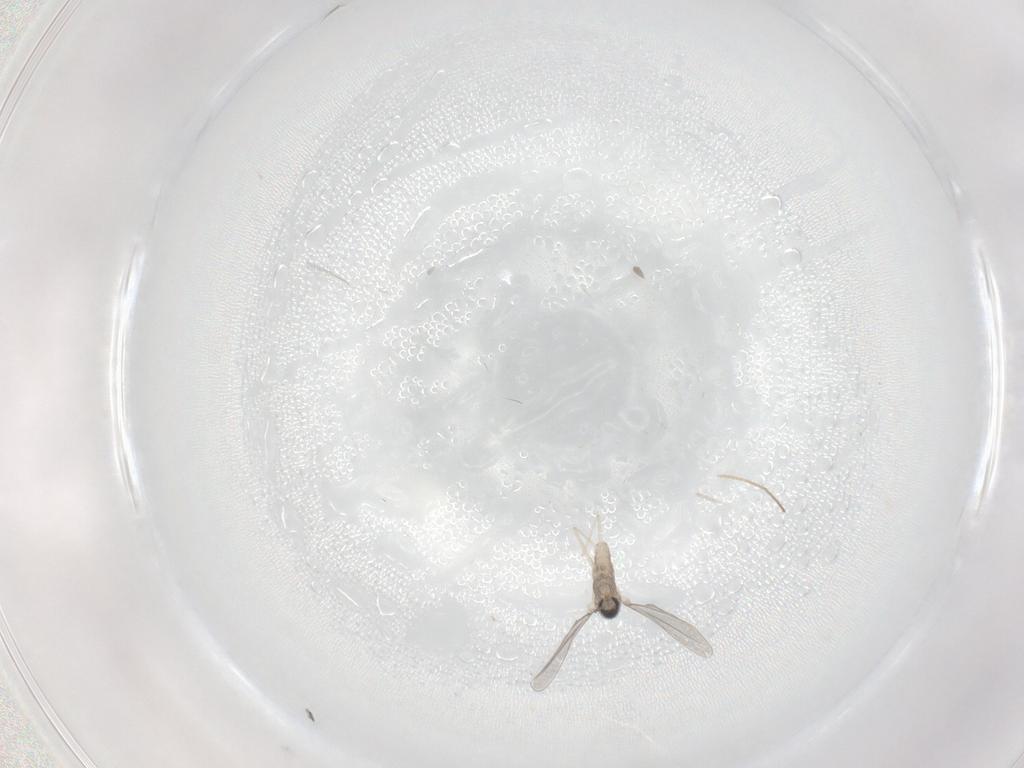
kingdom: Animalia
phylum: Arthropoda
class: Insecta
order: Diptera
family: Cecidomyiidae
